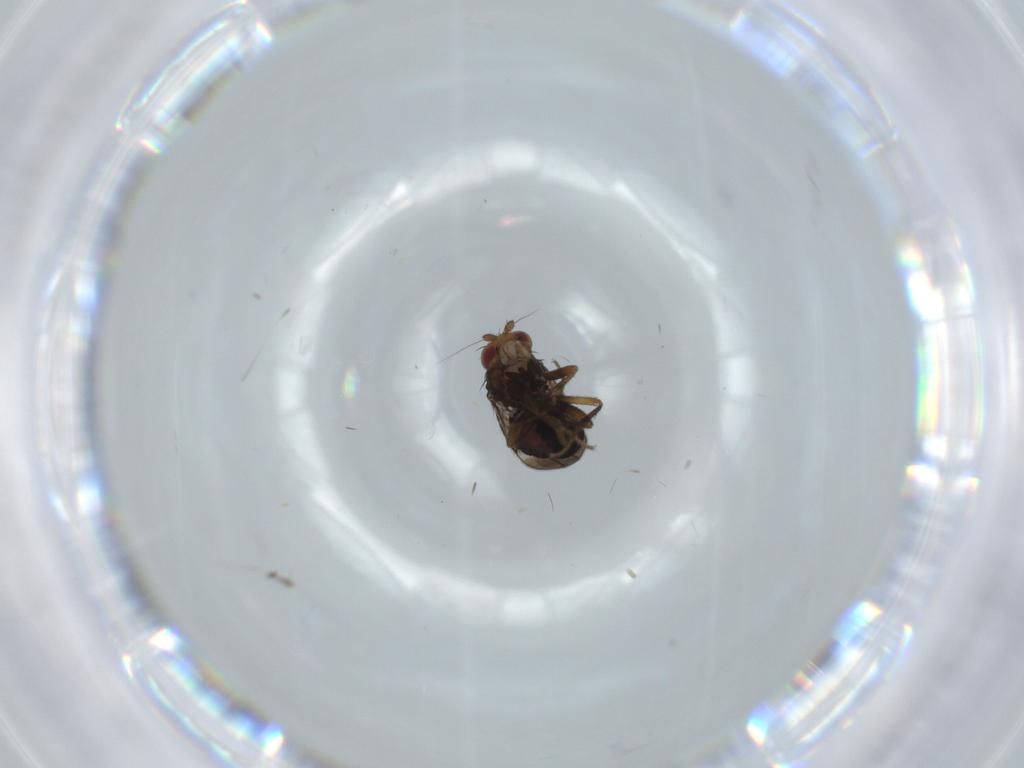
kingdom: Animalia
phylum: Arthropoda
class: Insecta
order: Diptera
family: Sphaeroceridae
